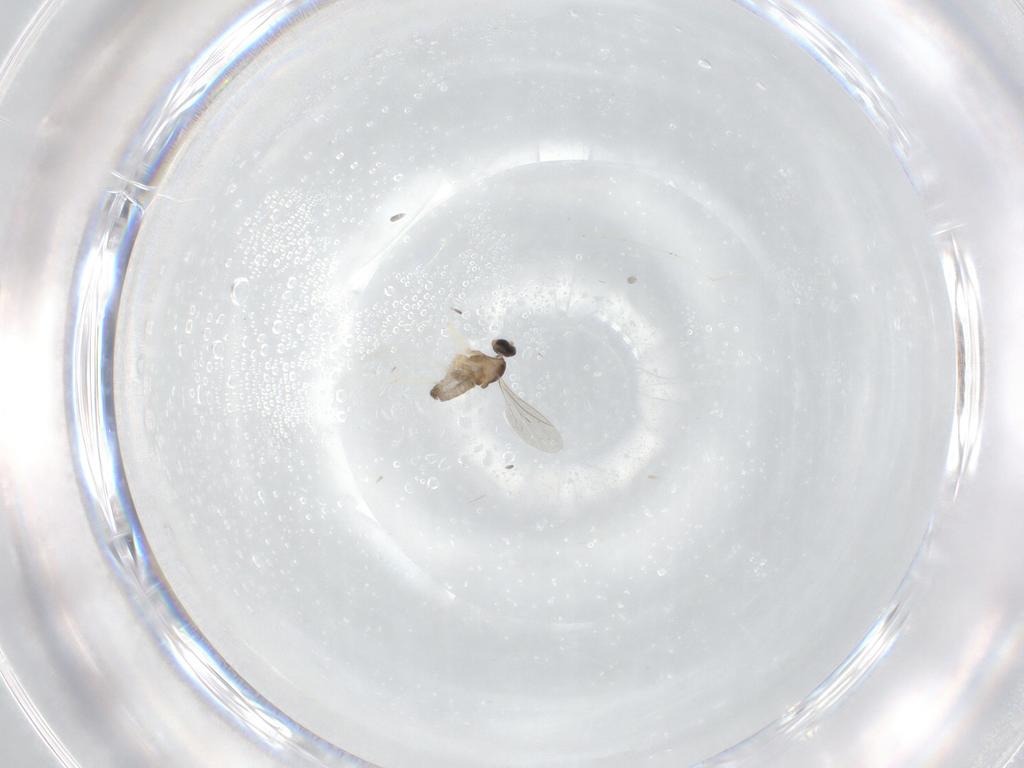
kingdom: Animalia
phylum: Arthropoda
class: Insecta
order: Diptera
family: Cecidomyiidae
